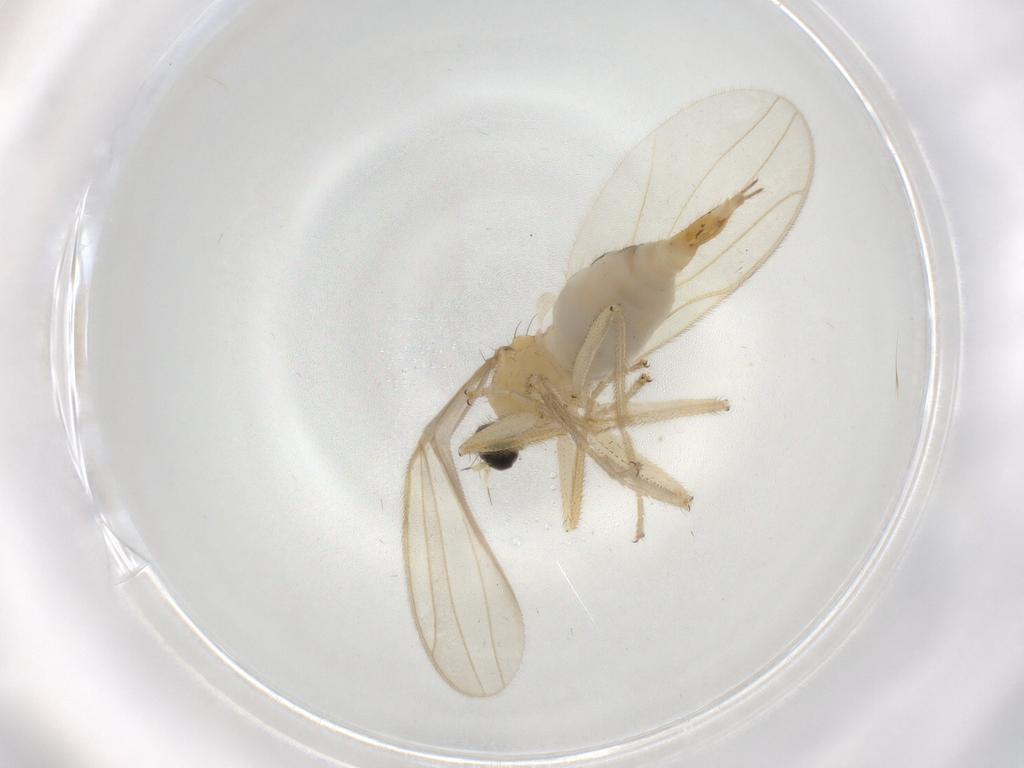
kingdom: Animalia
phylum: Arthropoda
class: Insecta
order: Diptera
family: Hybotidae
